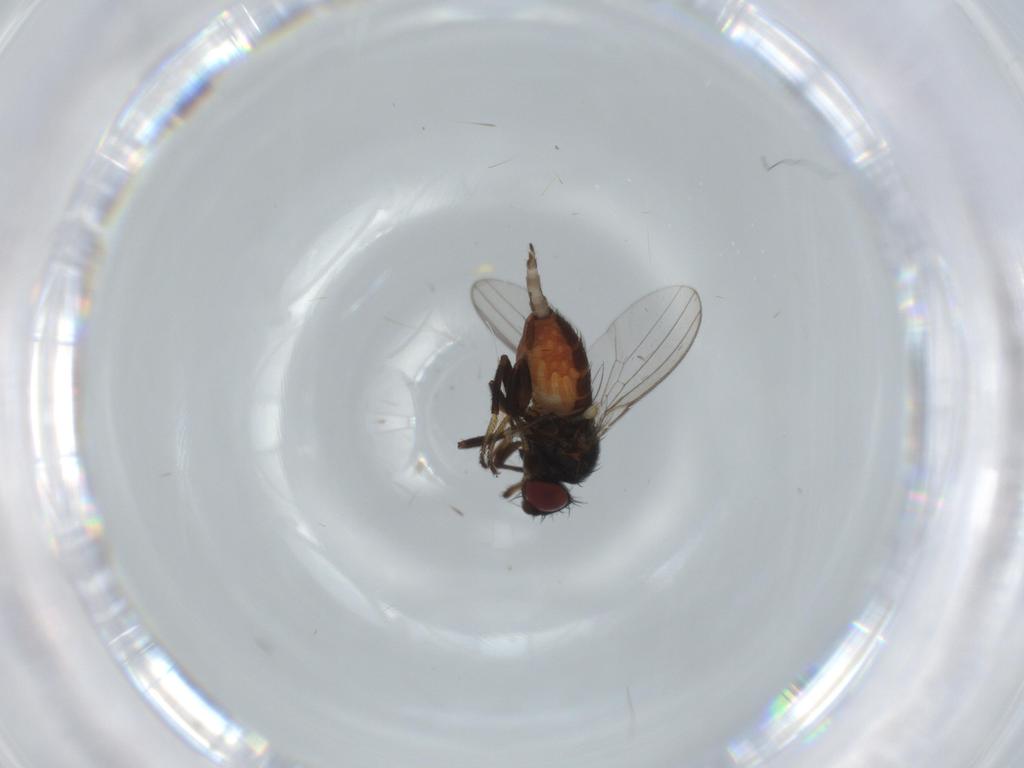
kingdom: Animalia
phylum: Arthropoda
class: Insecta
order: Diptera
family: Milichiidae
